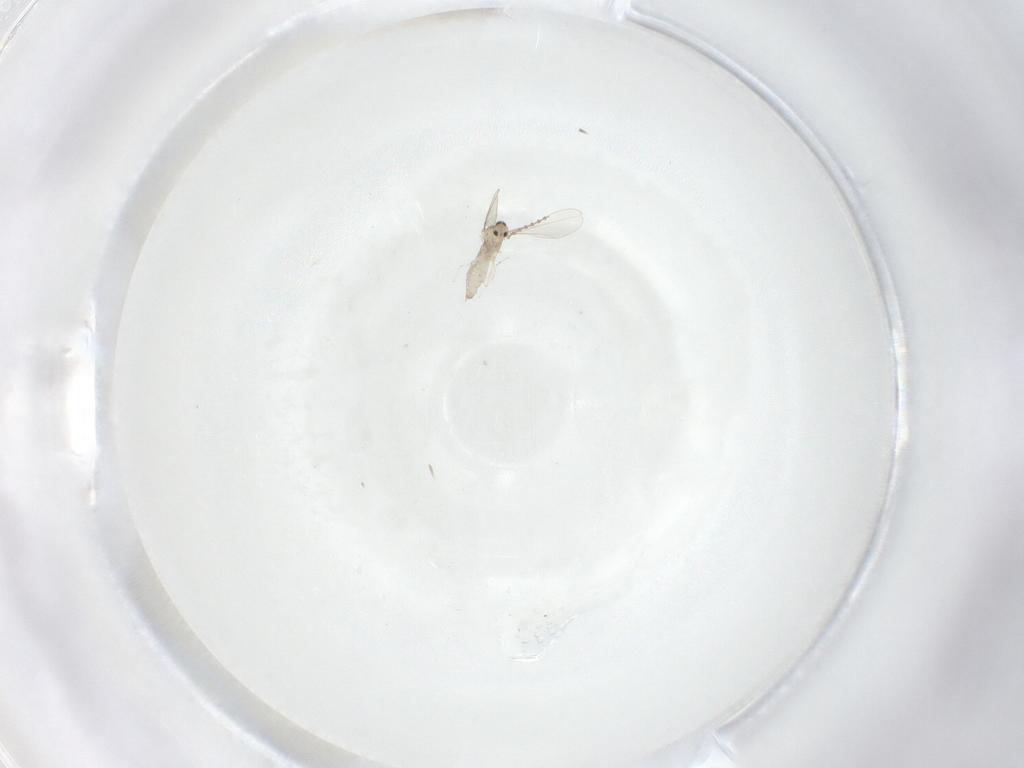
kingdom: Animalia
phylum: Arthropoda
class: Insecta
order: Diptera
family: Cecidomyiidae
